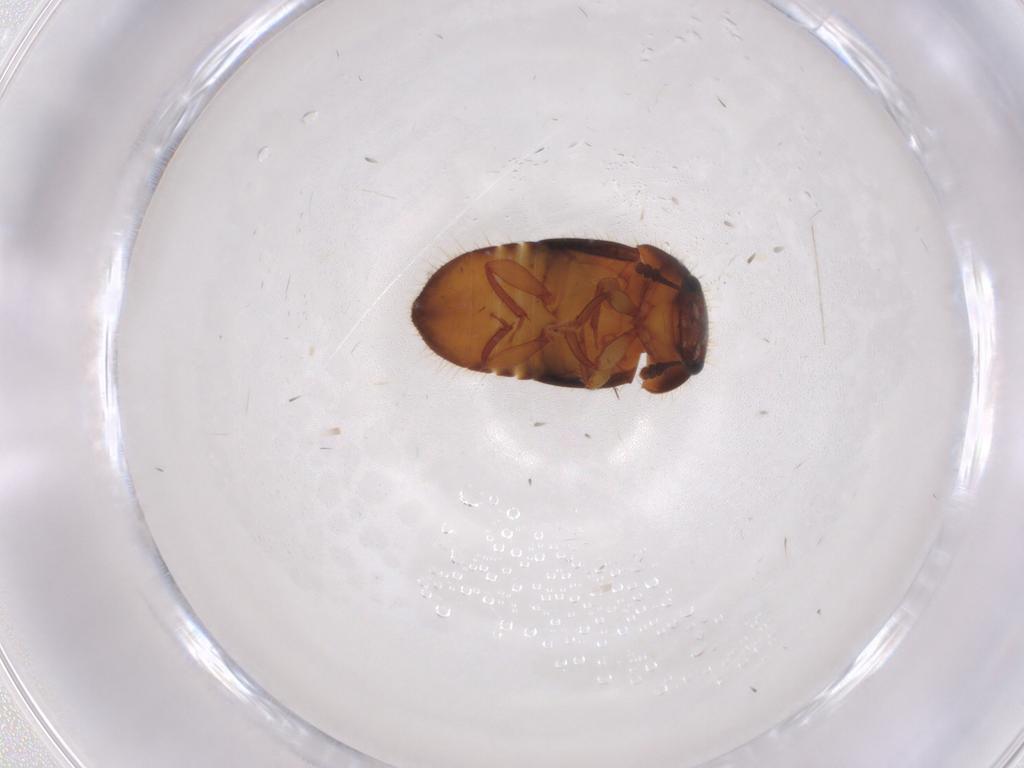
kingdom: Animalia
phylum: Arthropoda
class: Insecta
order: Coleoptera
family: Nitidulidae
